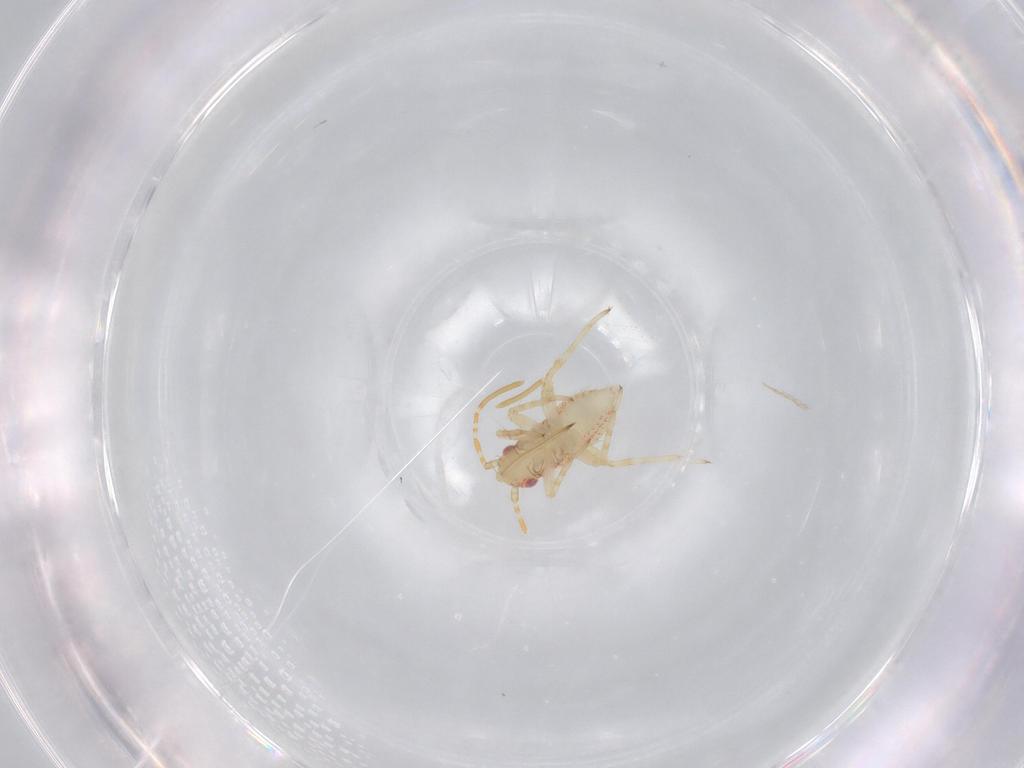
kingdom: Animalia
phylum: Arthropoda
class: Insecta
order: Hemiptera
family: Miridae
